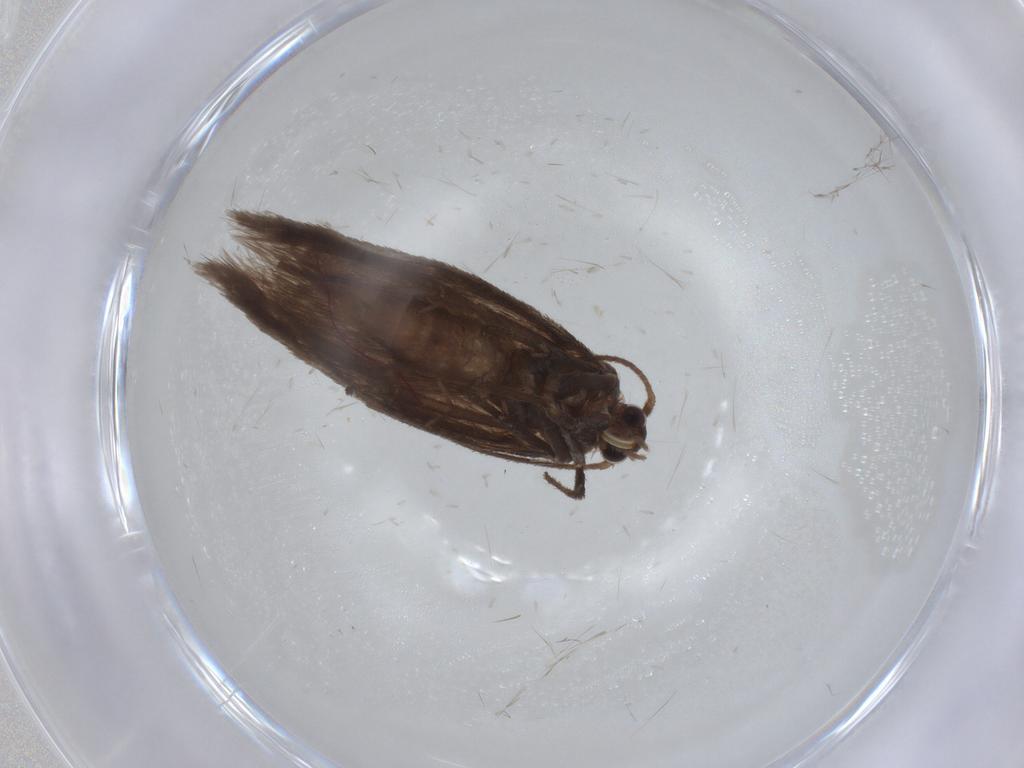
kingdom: Animalia
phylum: Arthropoda
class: Insecta
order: Lepidoptera
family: Limacodidae
